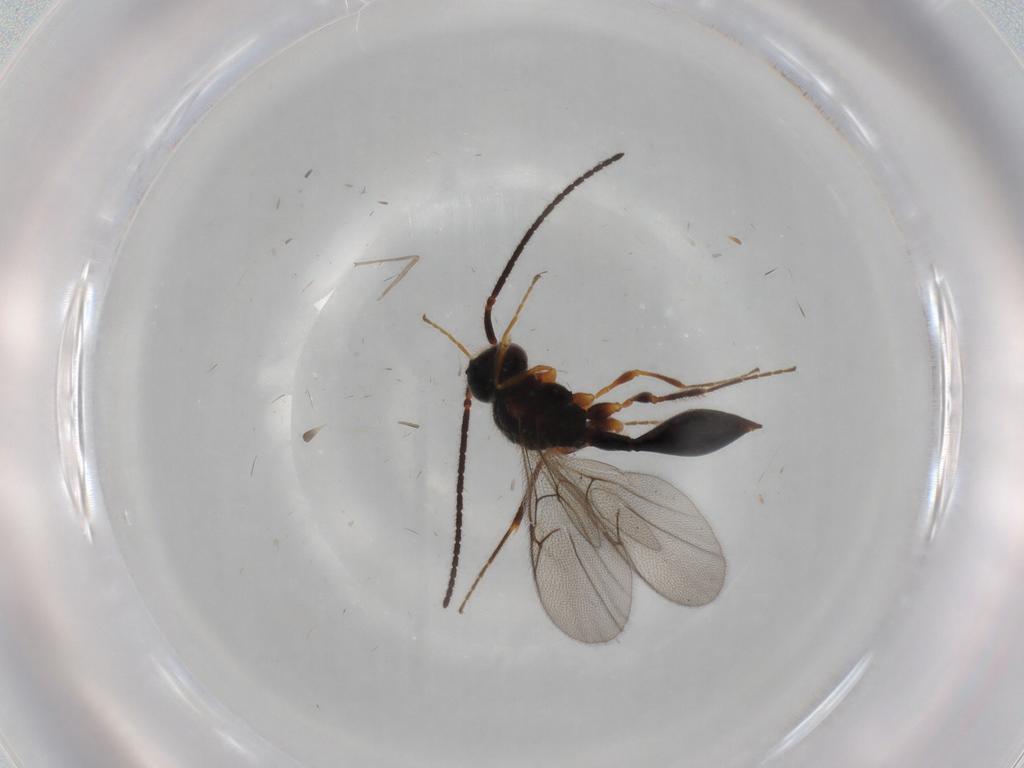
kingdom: Animalia
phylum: Arthropoda
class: Insecta
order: Hymenoptera
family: Diapriidae
